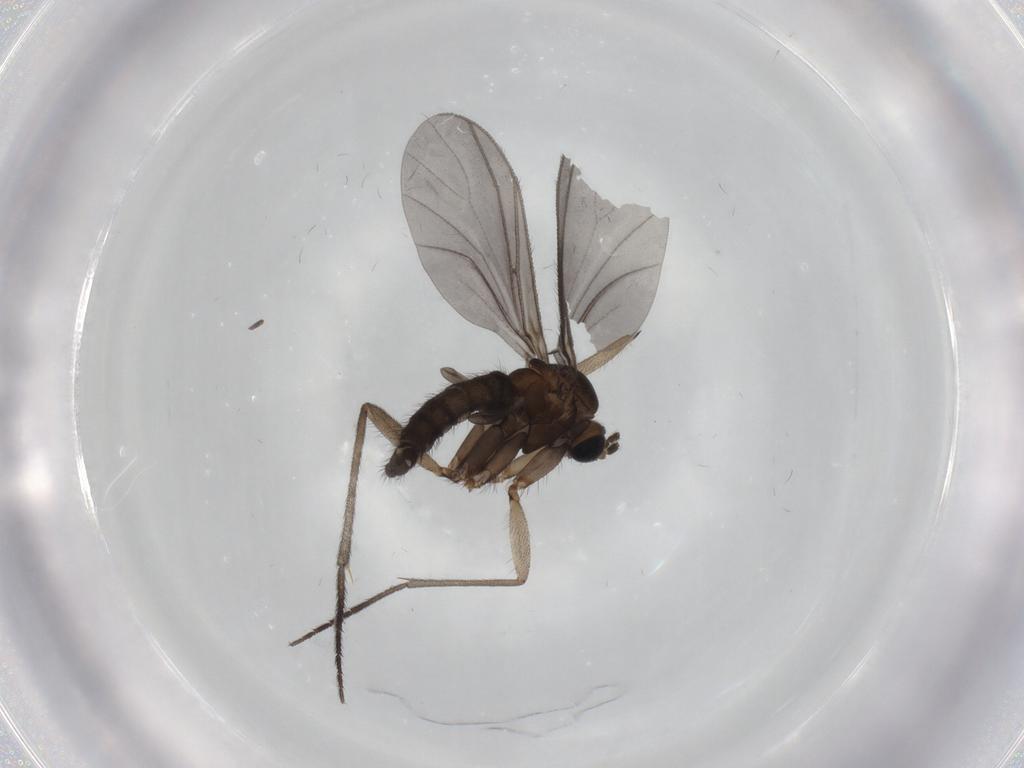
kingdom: Animalia
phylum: Arthropoda
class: Insecta
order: Diptera
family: Sciaridae
